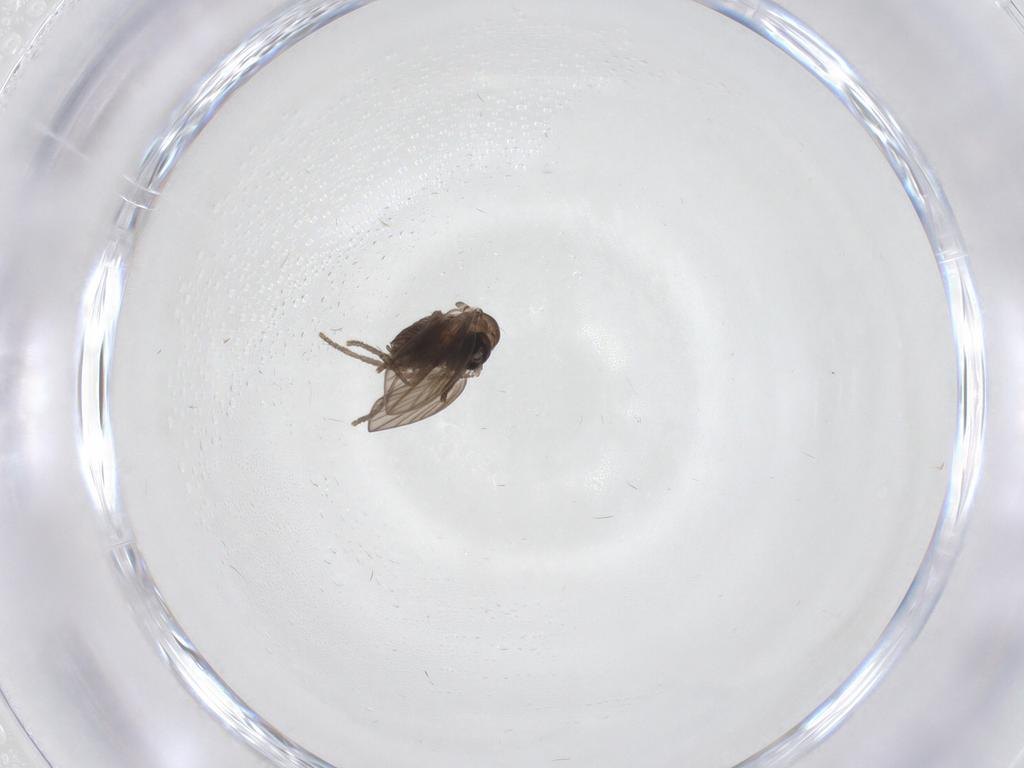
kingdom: Animalia
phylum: Arthropoda
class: Insecta
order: Diptera
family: Psychodidae
